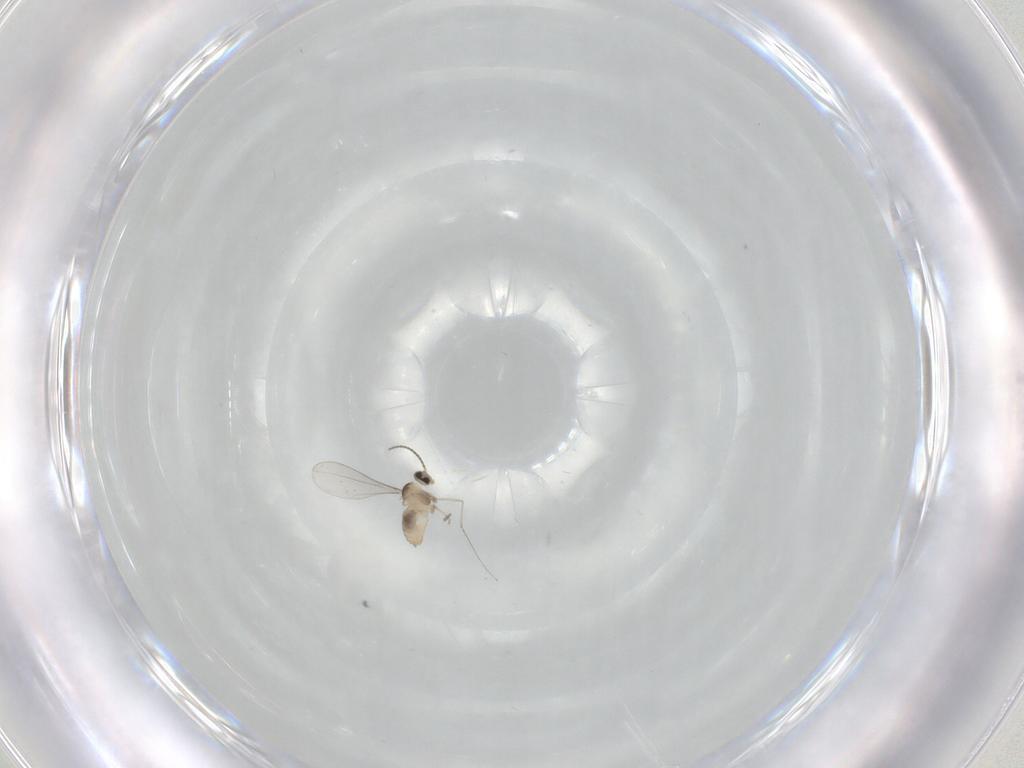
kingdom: Animalia
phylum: Arthropoda
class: Insecta
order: Diptera
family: Cecidomyiidae
